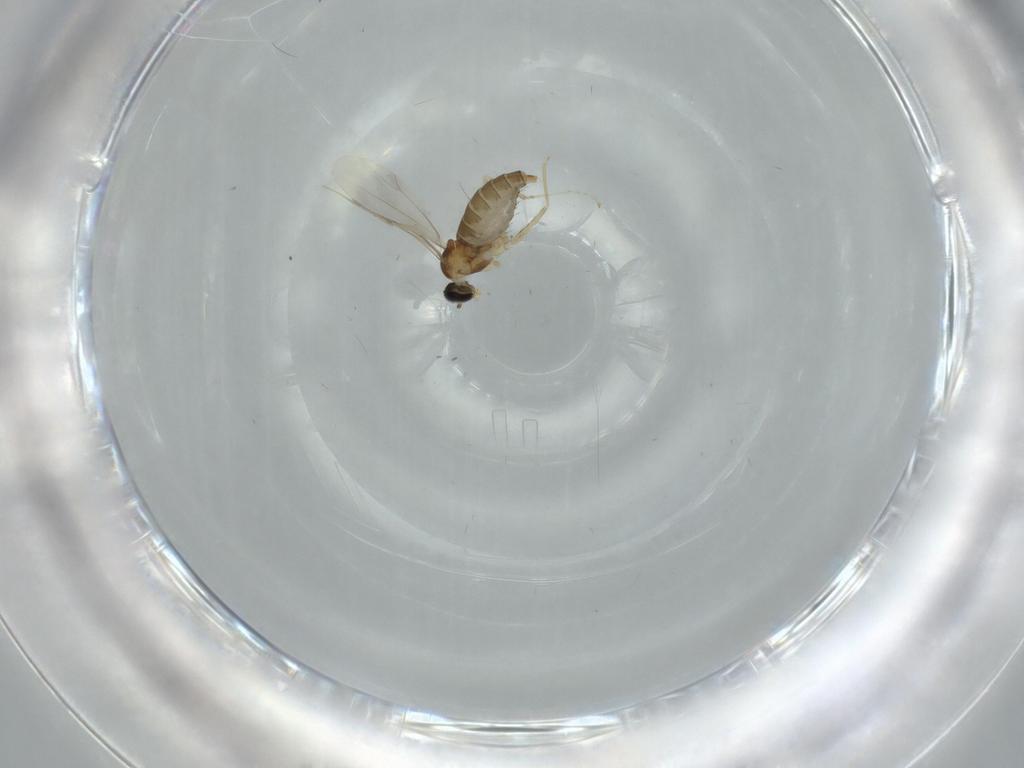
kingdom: Animalia
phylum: Arthropoda
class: Insecta
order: Diptera
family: Cecidomyiidae
